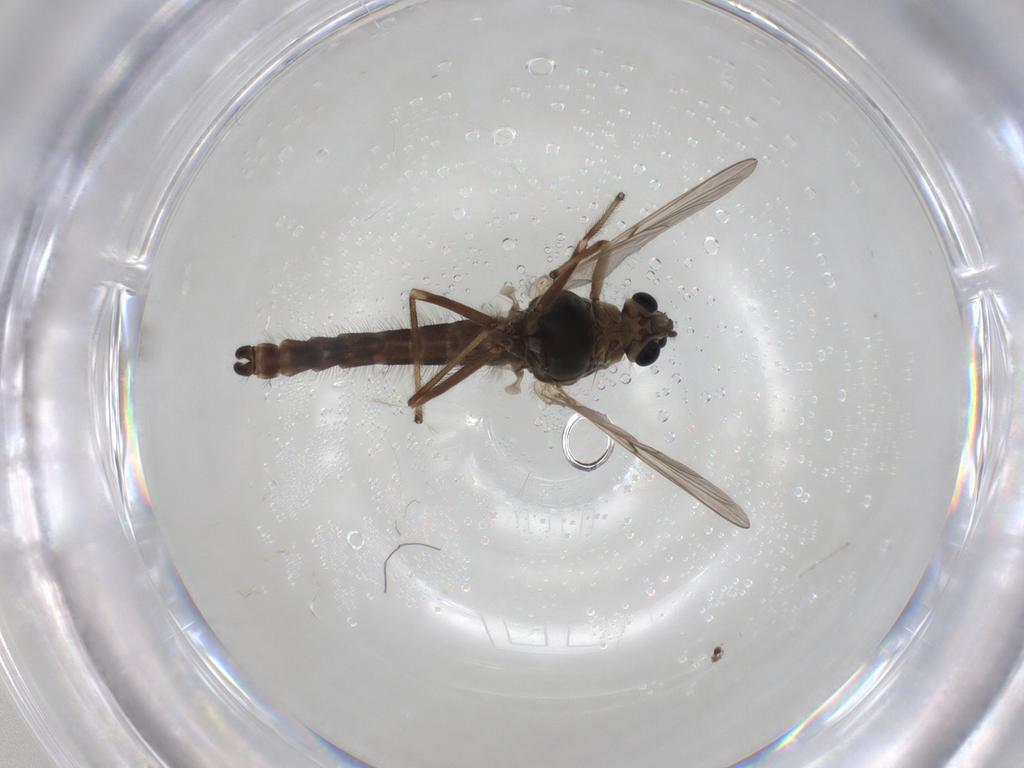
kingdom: Animalia
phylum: Arthropoda
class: Insecta
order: Diptera
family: Chironomidae
